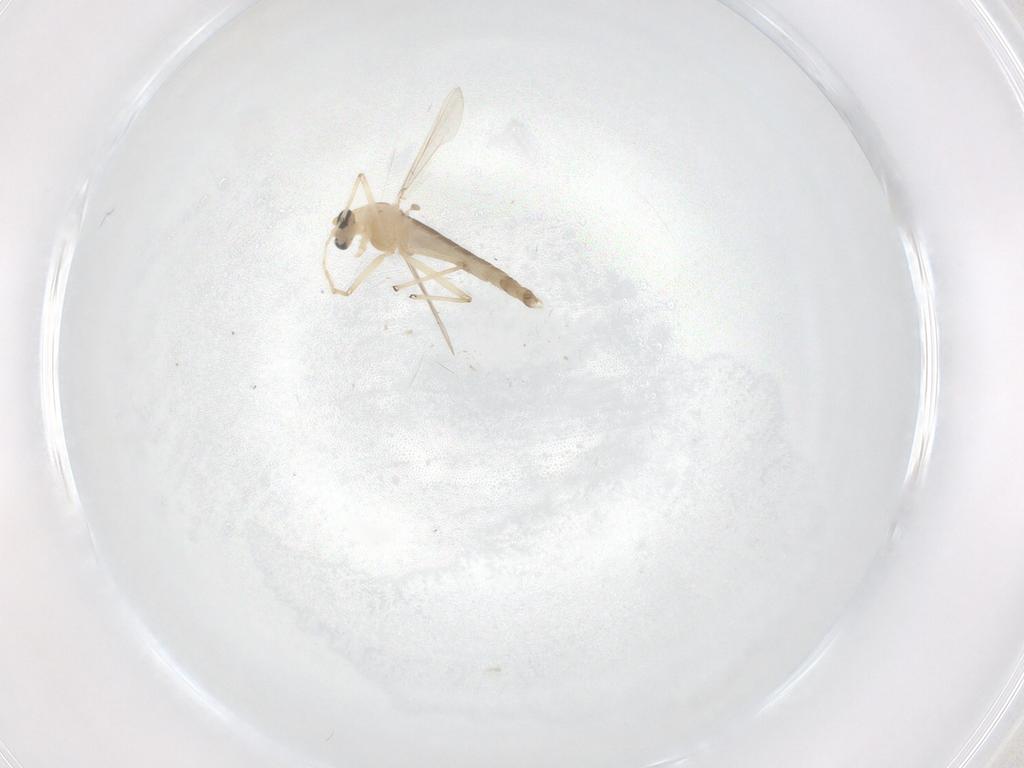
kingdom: Animalia
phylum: Arthropoda
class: Insecta
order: Diptera
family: Chironomidae
